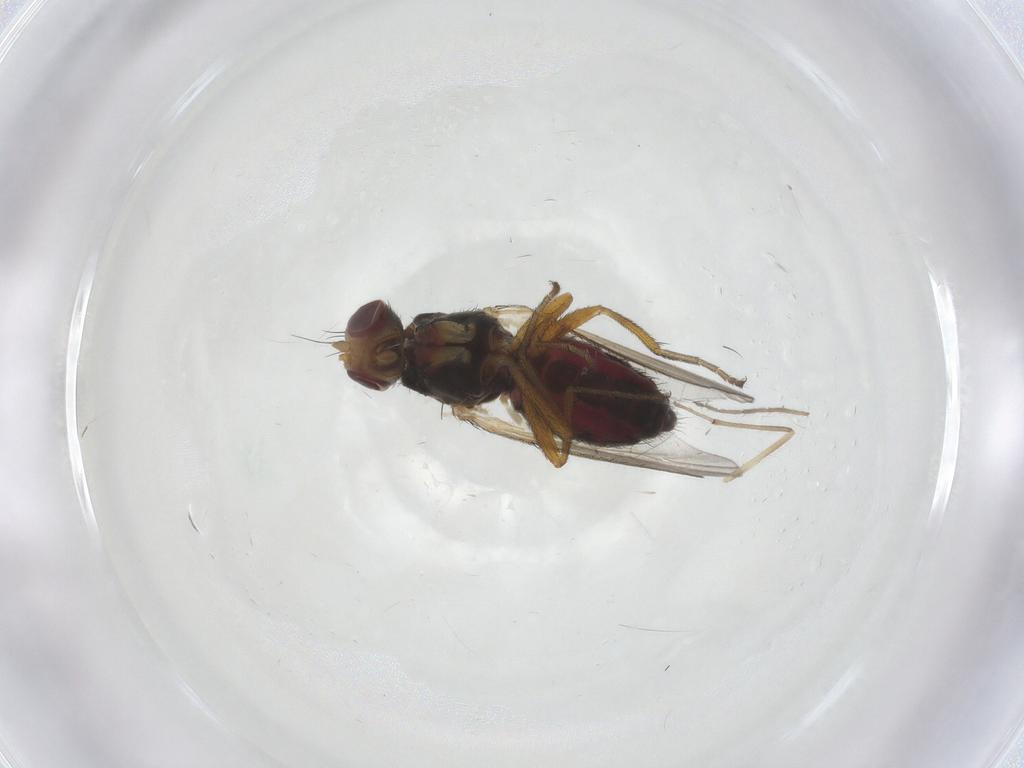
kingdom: Animalia
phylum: Arthropoda
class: Insecta
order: Diptera
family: Heleomyzidae
